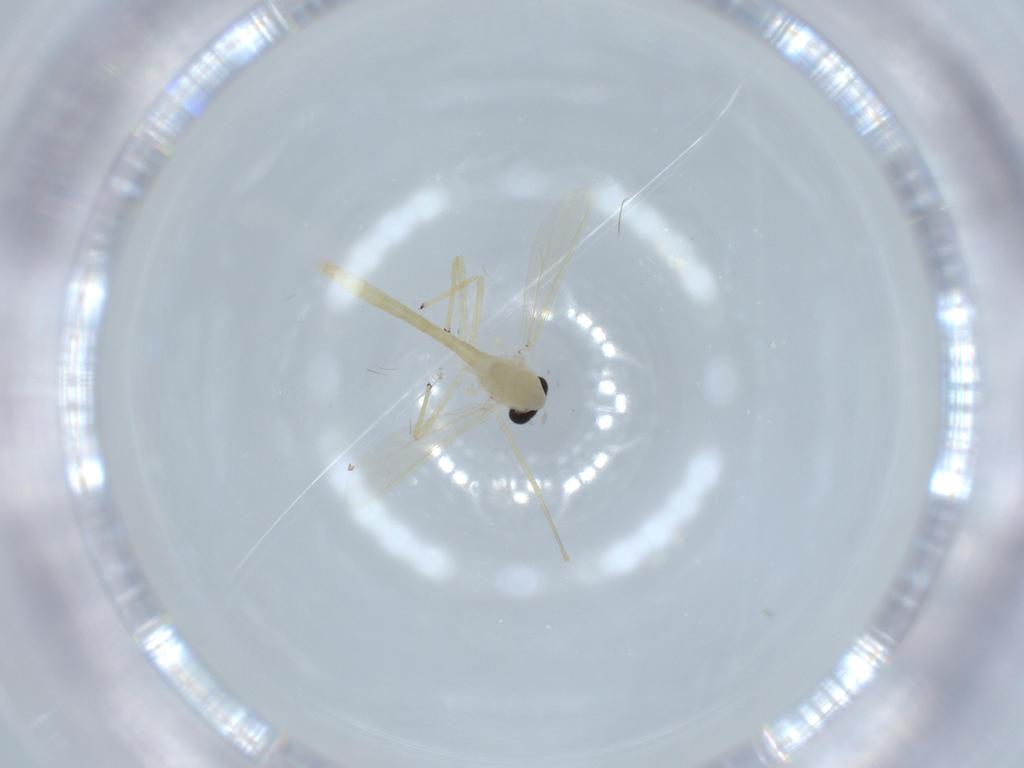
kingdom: Animalia
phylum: Arthropoda
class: Insecta
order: Diptera
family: Chironomidae
